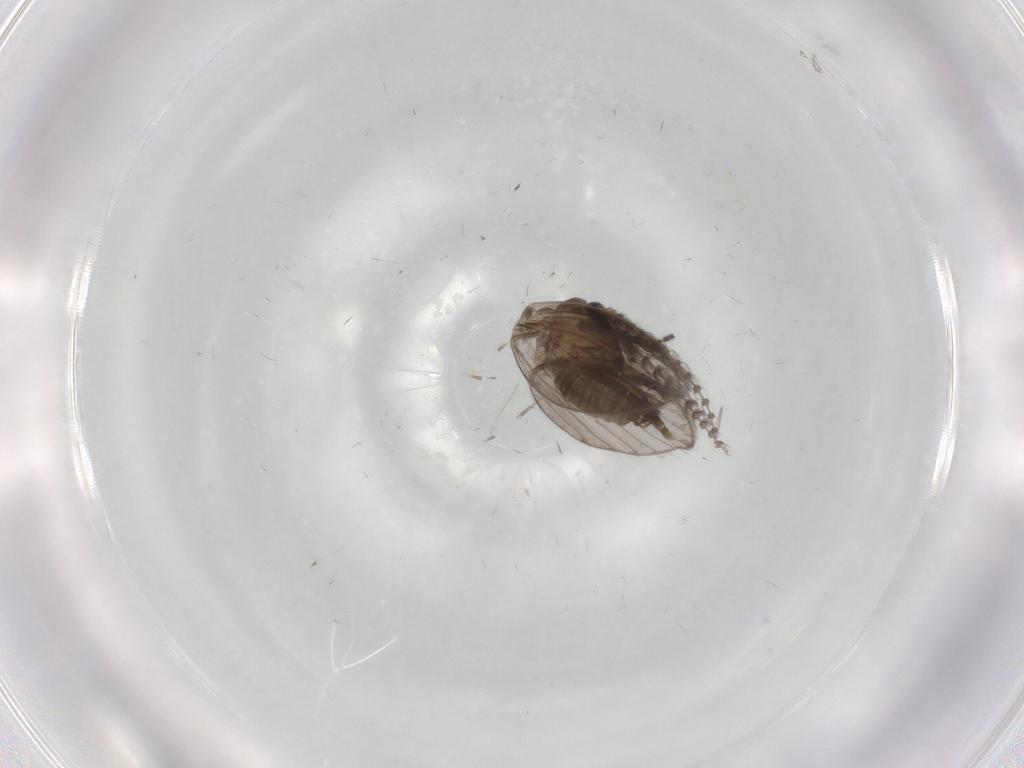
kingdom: Animalia
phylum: Arthropoda
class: Insecta
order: Diptera
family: Psychodidae
